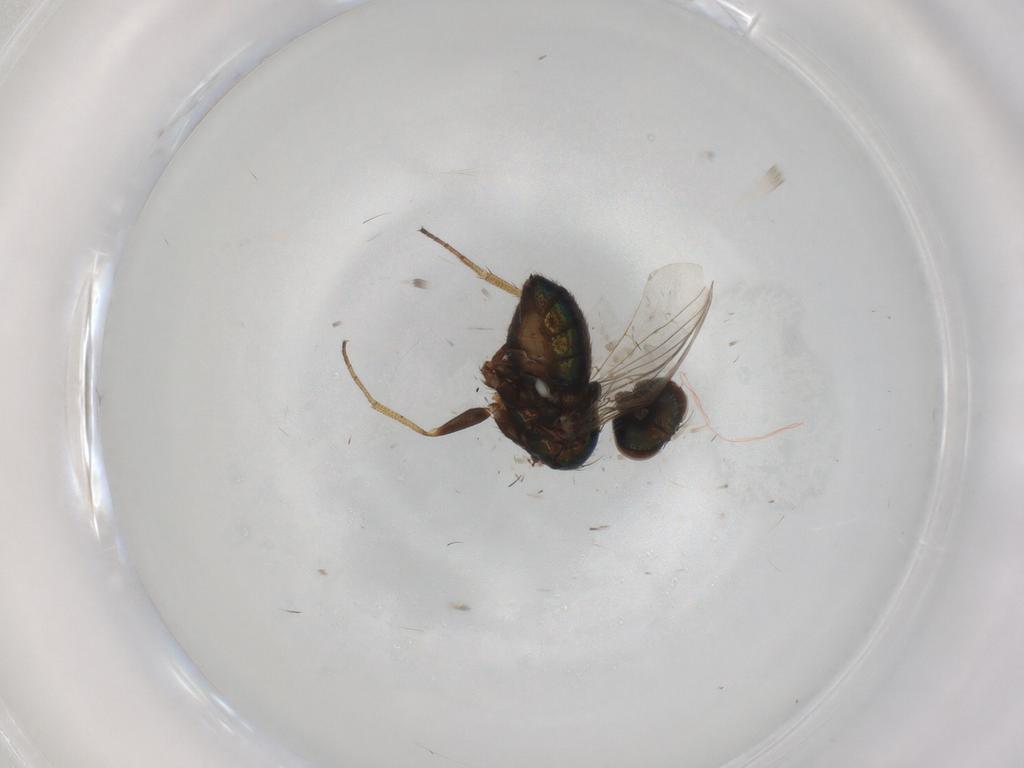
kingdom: Animalia
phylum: Arthropoda
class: Insecta
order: Diptera
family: Dolichopodidae
